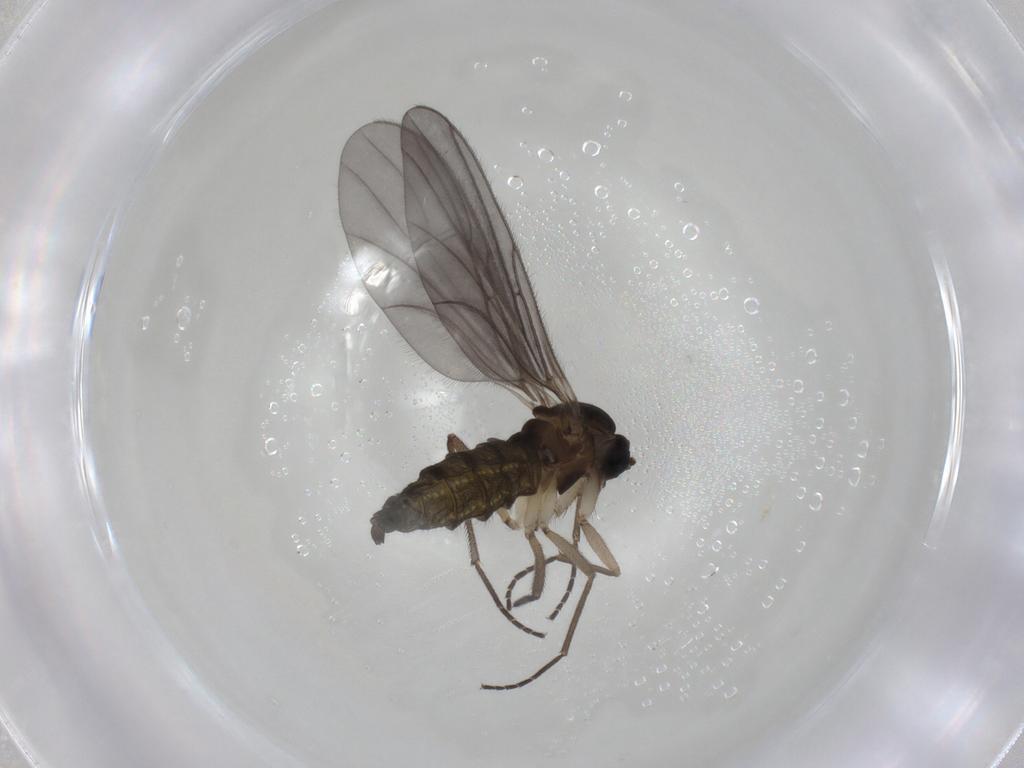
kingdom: Animalia
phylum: Arthropoda
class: Insecta
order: Diptera
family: Sciaridae
